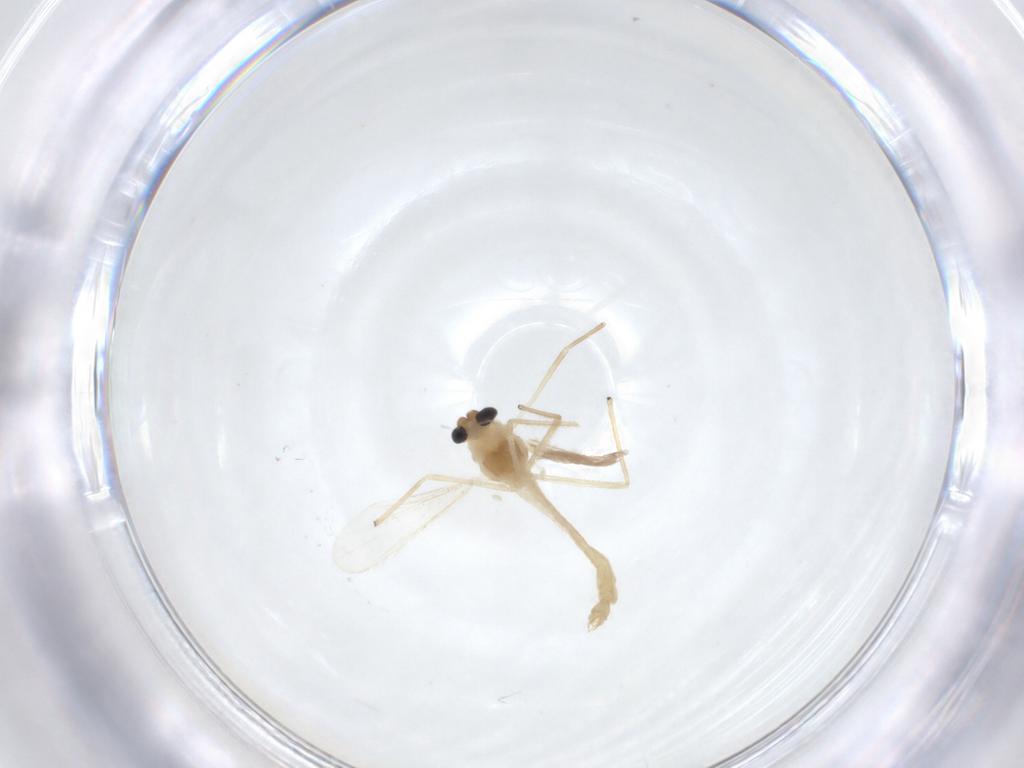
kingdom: Animalia
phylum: Arthropoda
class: Insecta
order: Diptera
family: Chironomidae
